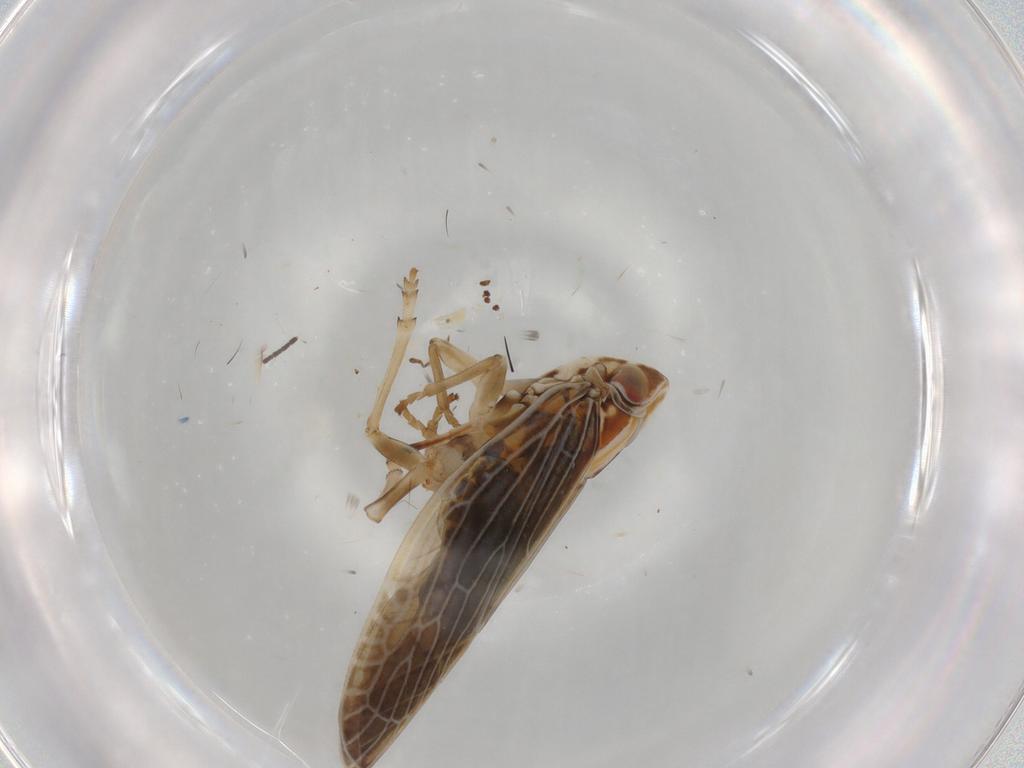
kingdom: Animalia
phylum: Arthropoda
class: Insecta
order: Hemiptera
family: Achilidae
